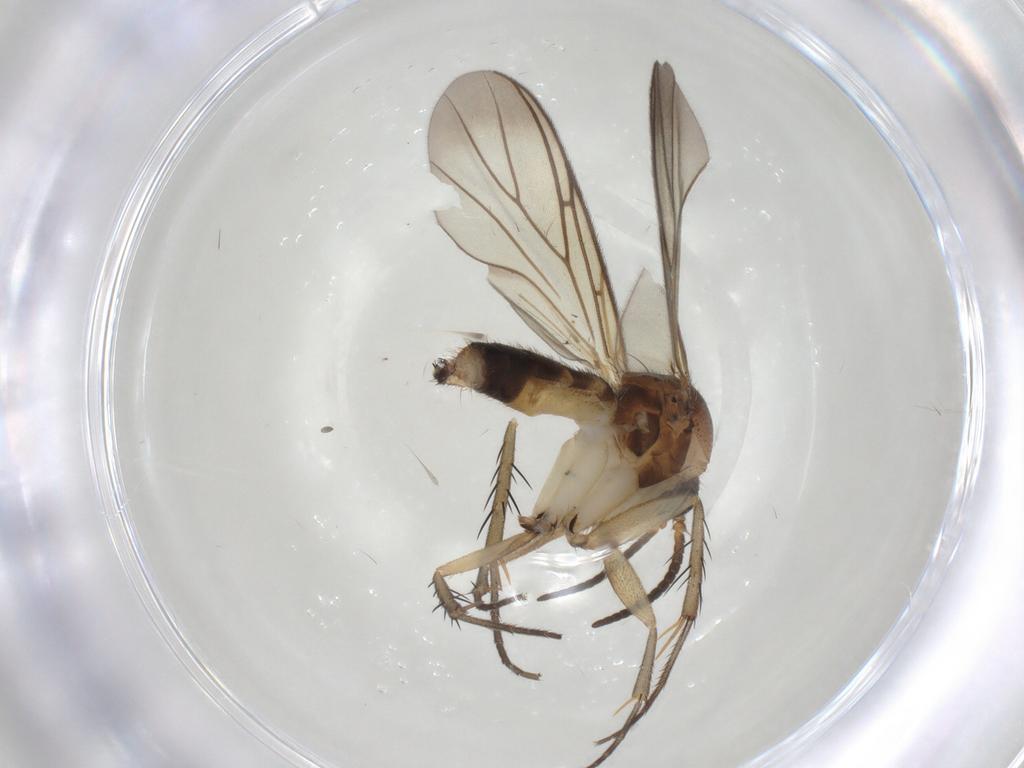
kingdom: Animalia
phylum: Arthropoda
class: Insecta
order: Diptera
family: Mycetophilidae
